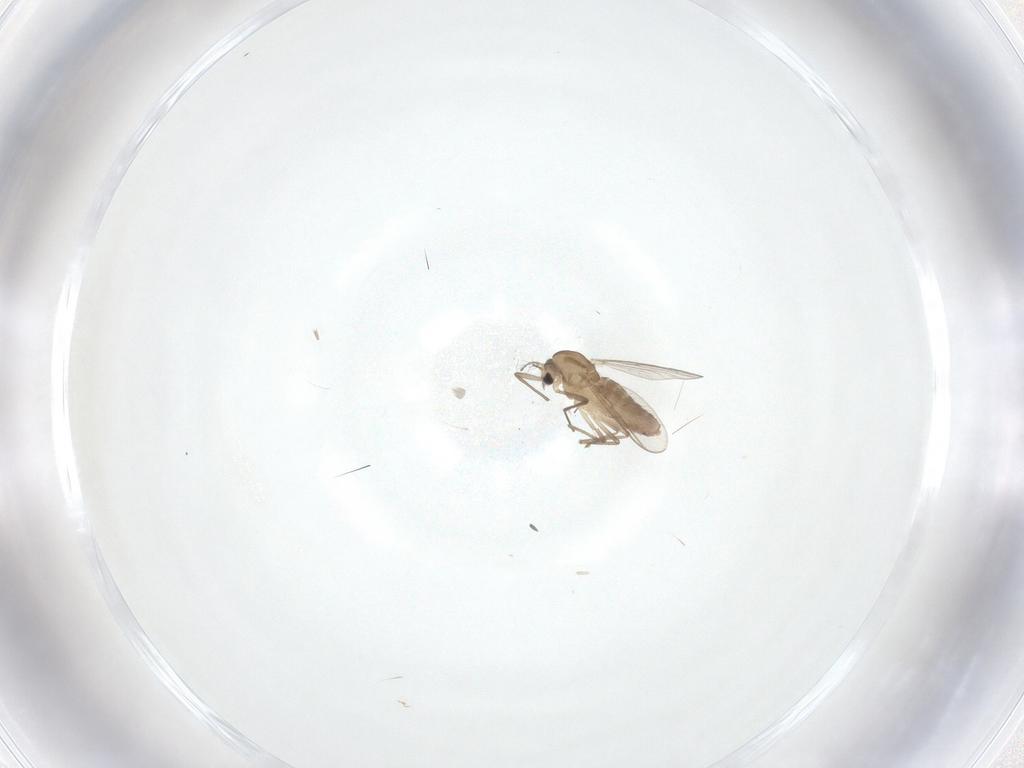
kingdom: Animalia
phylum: Arthropoda
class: Insecta
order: Diptera
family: Chironomidae
